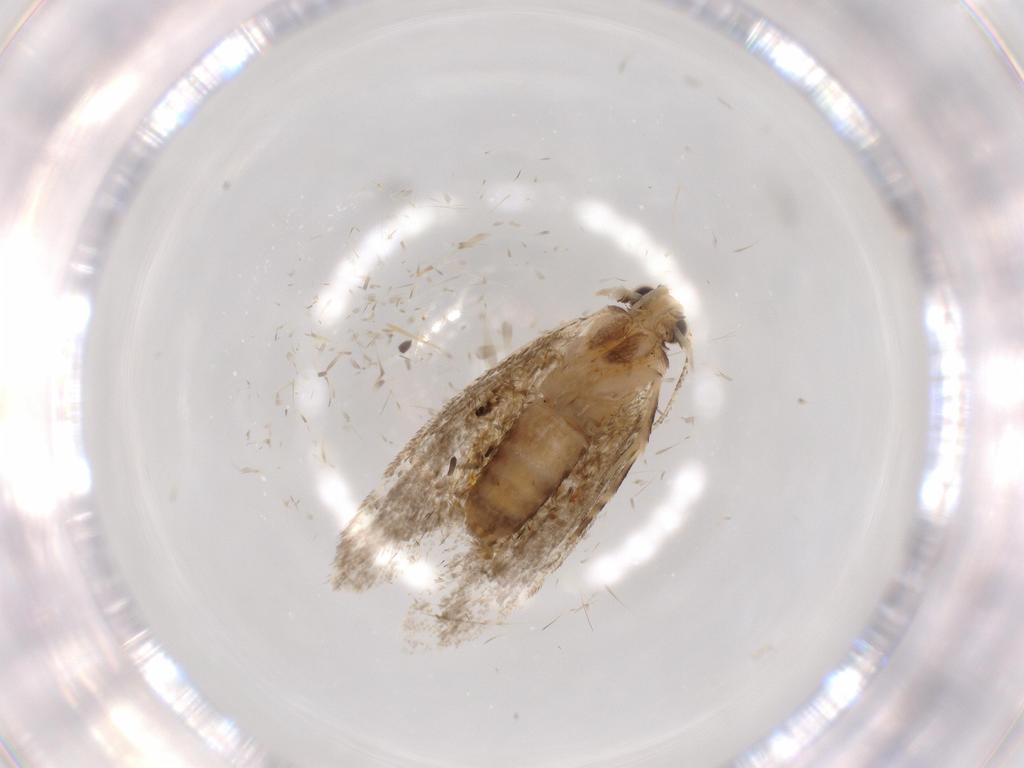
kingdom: Animalia
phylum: Arthropoda
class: Insecta
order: Lepidoptera
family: Tineidae
